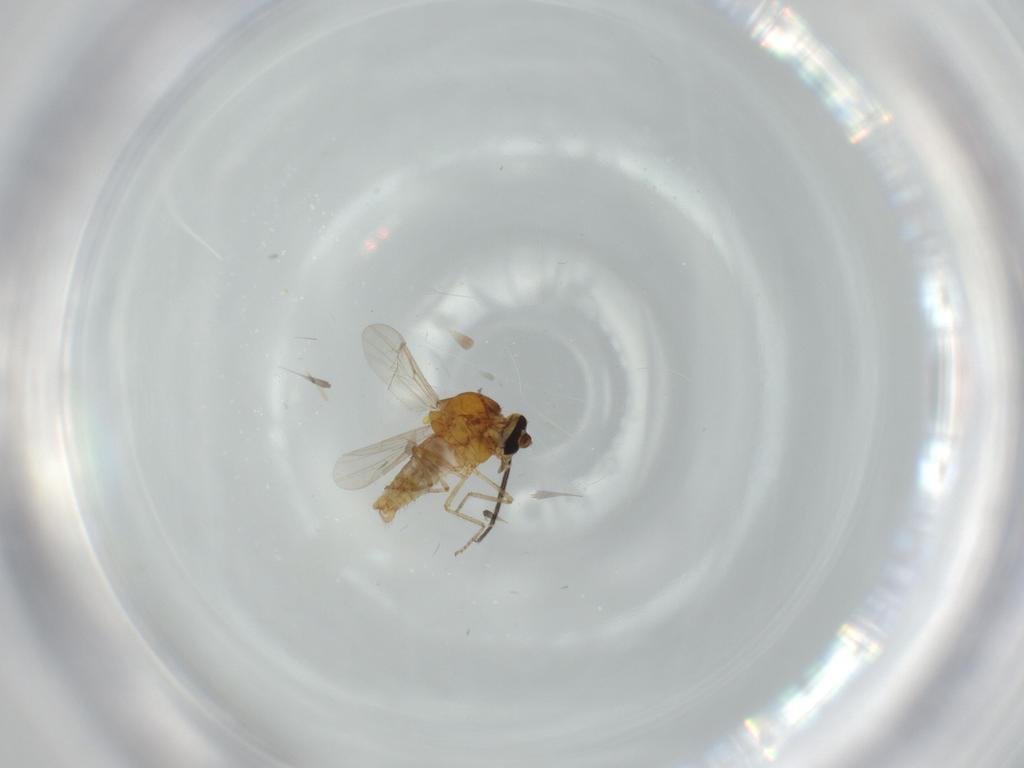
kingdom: Animalia
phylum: Arthropoda
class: Insecta
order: Diptera
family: Ceratopogonidae
